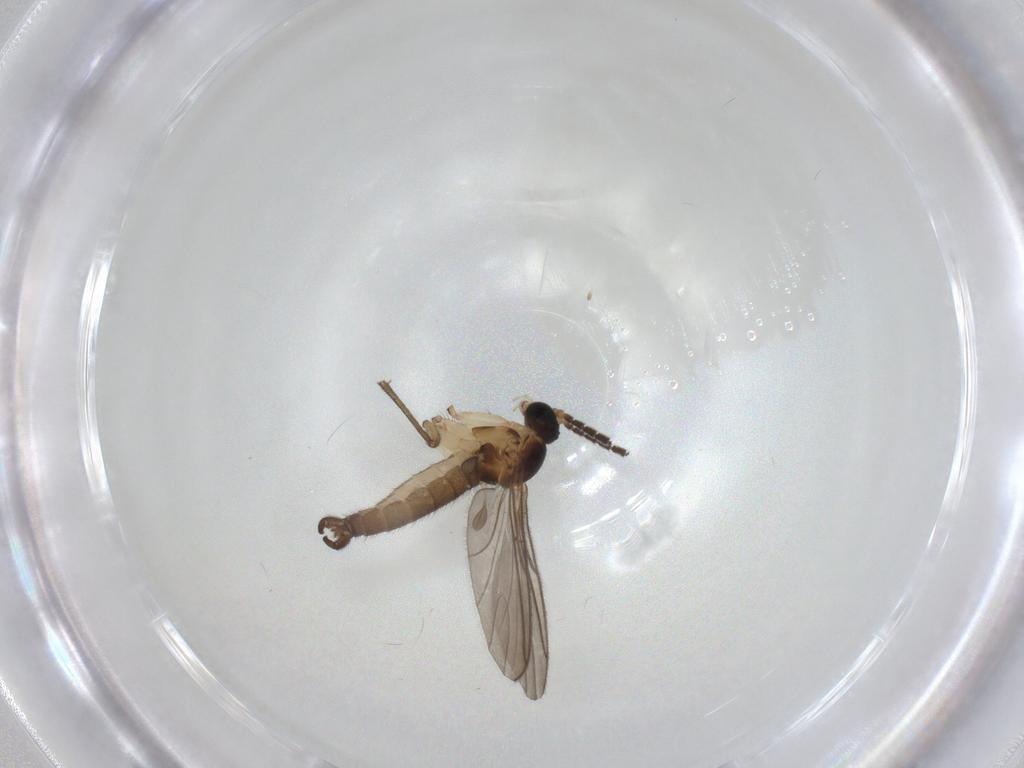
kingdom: Animalia
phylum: Arthropoda
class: Insecta
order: Diptera
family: Sciaridae
